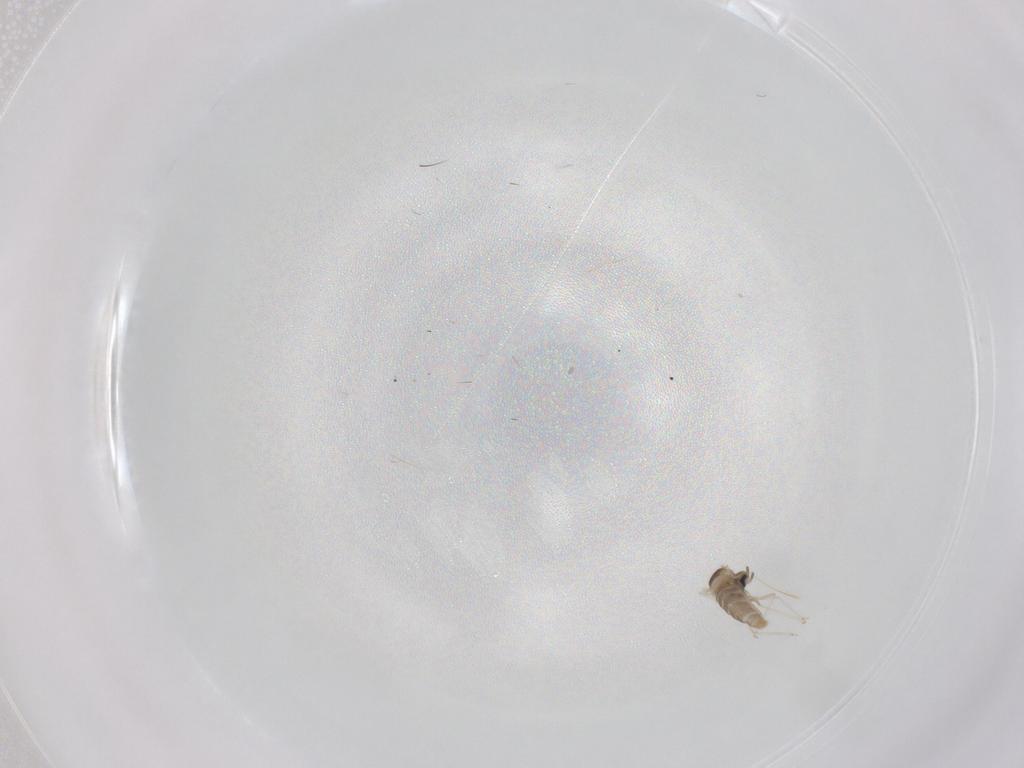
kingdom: Animalia
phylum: Arthropoda
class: Insecta
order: Diptera
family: Cecidomyiidae
